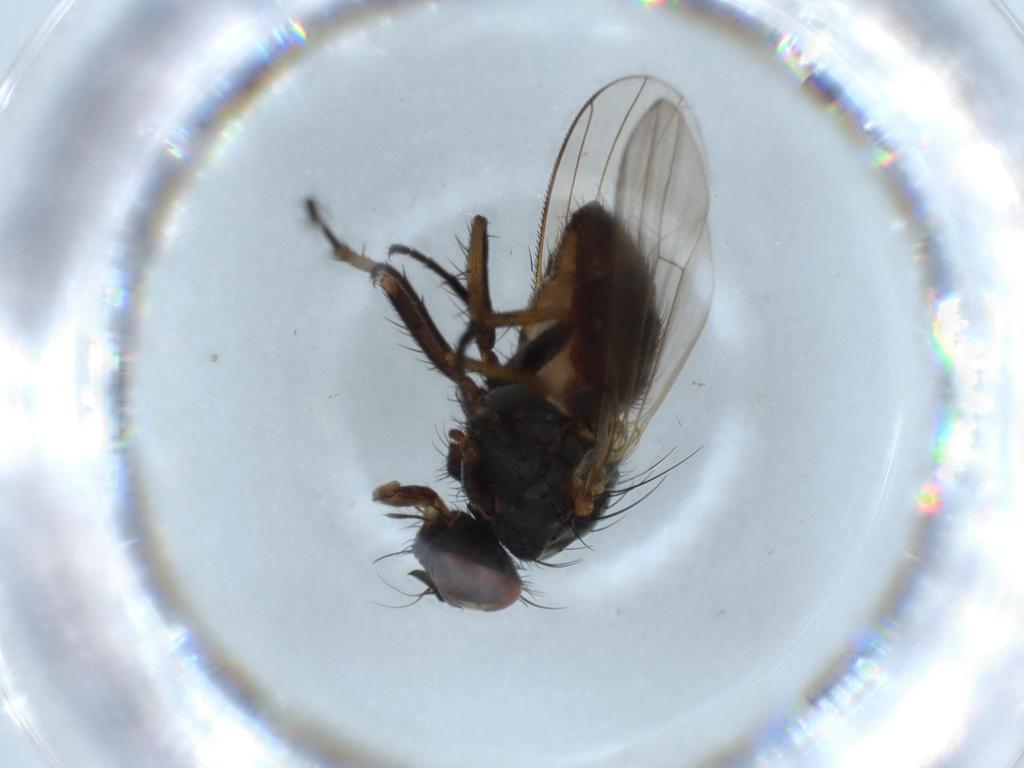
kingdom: Animalia
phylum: Arthropoda
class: Insecta
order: Diptera
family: Muscidae
